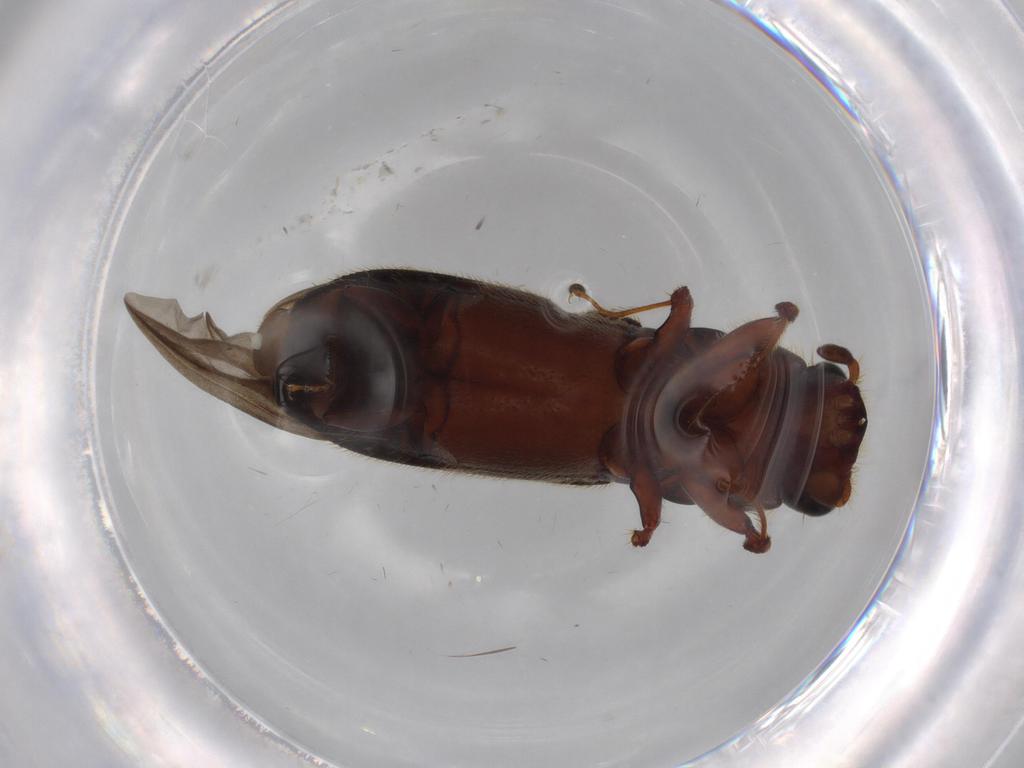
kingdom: Animalia
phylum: Arthropoda
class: Insecta
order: Coleoptera
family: Curculionidae
